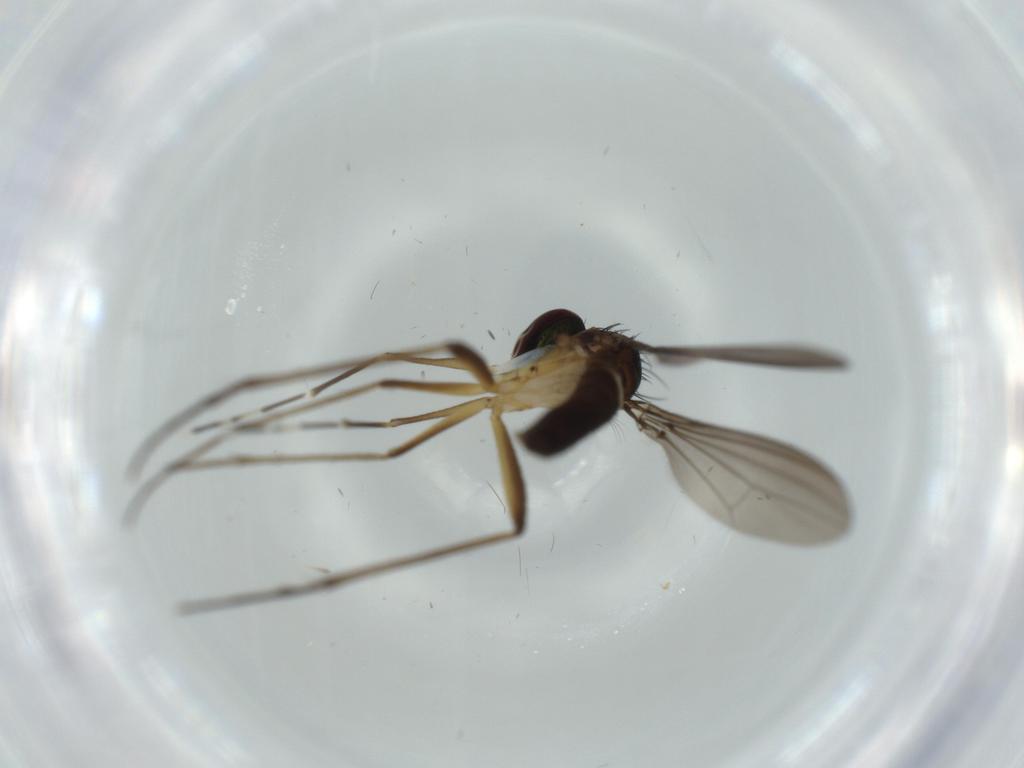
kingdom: Animalia
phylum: Arthropoda
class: Insecta
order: Diptera
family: Dolichopodidae
